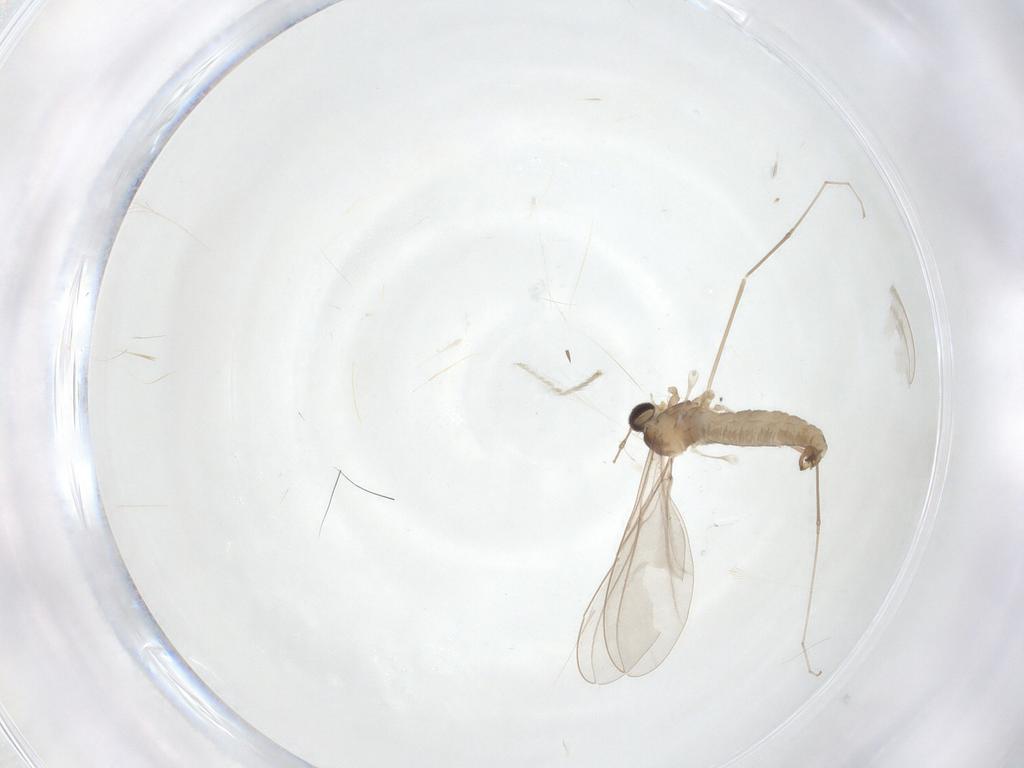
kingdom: Animalia
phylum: Arthropoda
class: Insecta
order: Diptera
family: Cecidomyiidae
